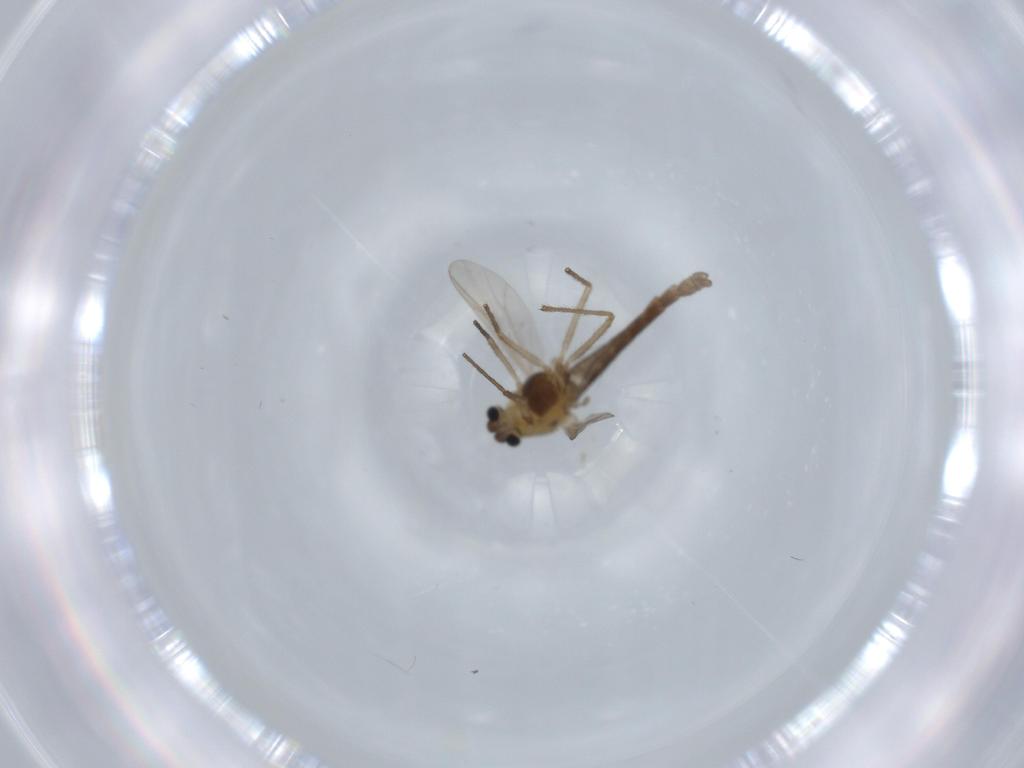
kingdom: Animalia
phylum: Arthropoda
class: Insecta
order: Diptera
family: Chironomidae
